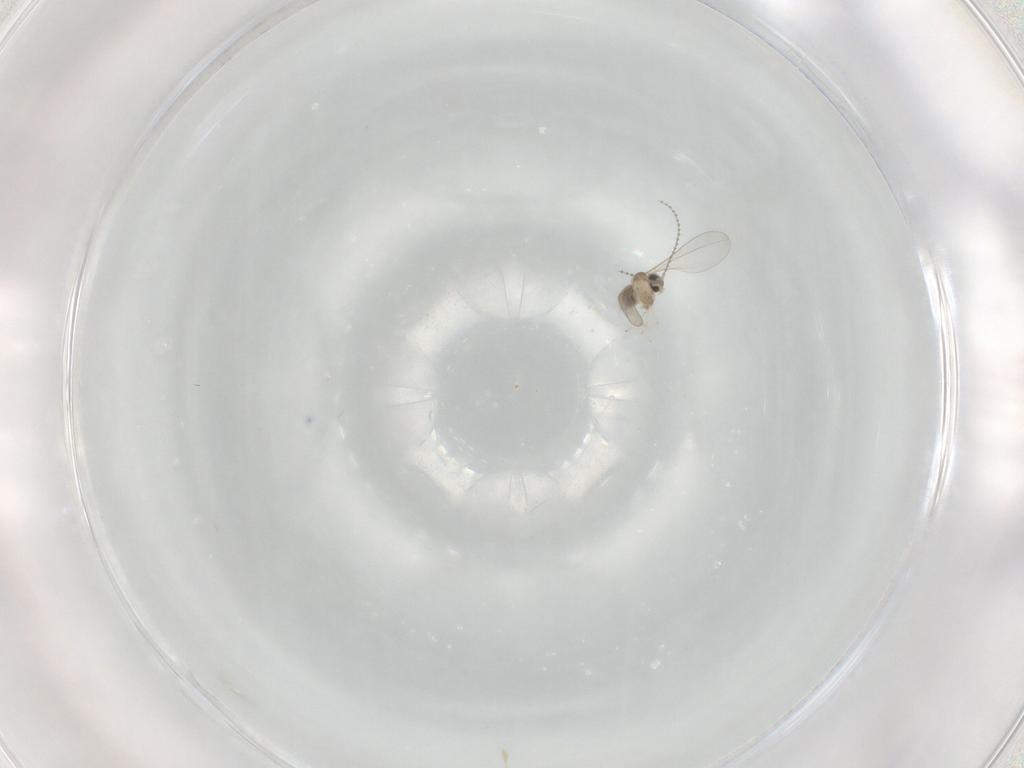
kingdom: Animalia
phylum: Arthropoda
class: Insecta
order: Diptera
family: Cecidomyiidae
